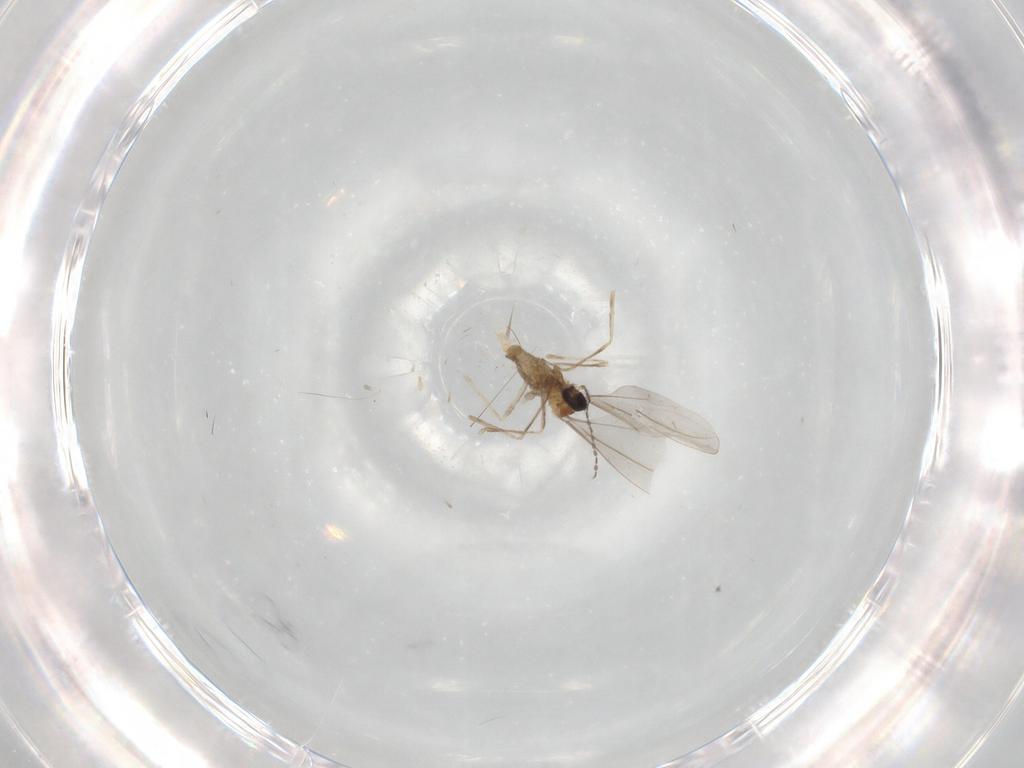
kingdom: Animalia
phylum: Arthropoda
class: Insecta
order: Diptera
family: Cecidomyiidae
